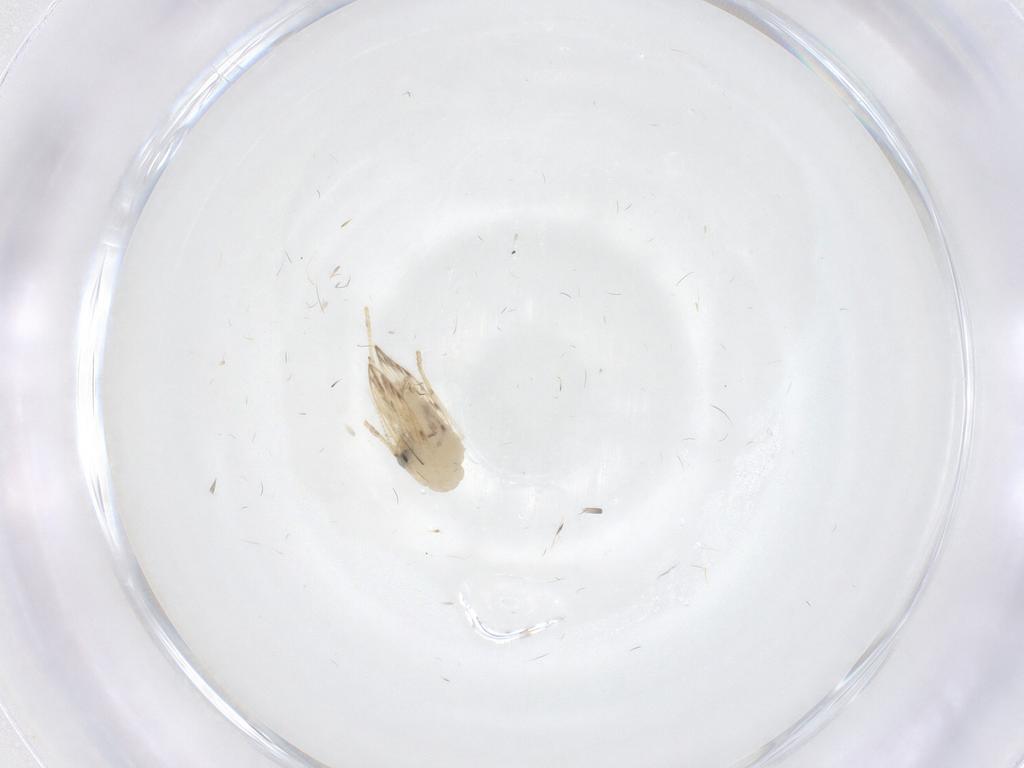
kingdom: Animalia
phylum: Arthropoda
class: Insecta
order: Diptera
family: Psychodidae
